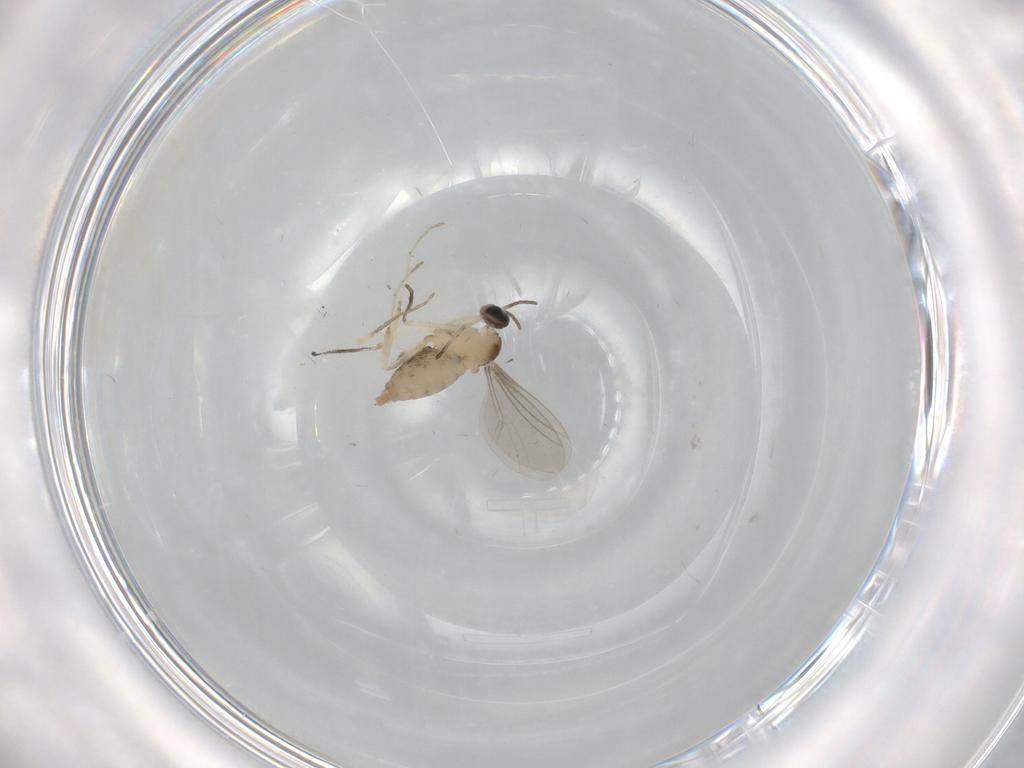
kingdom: Animalia
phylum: Arthropoda
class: Insecta
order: Diptera
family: Cecidomyiidae
